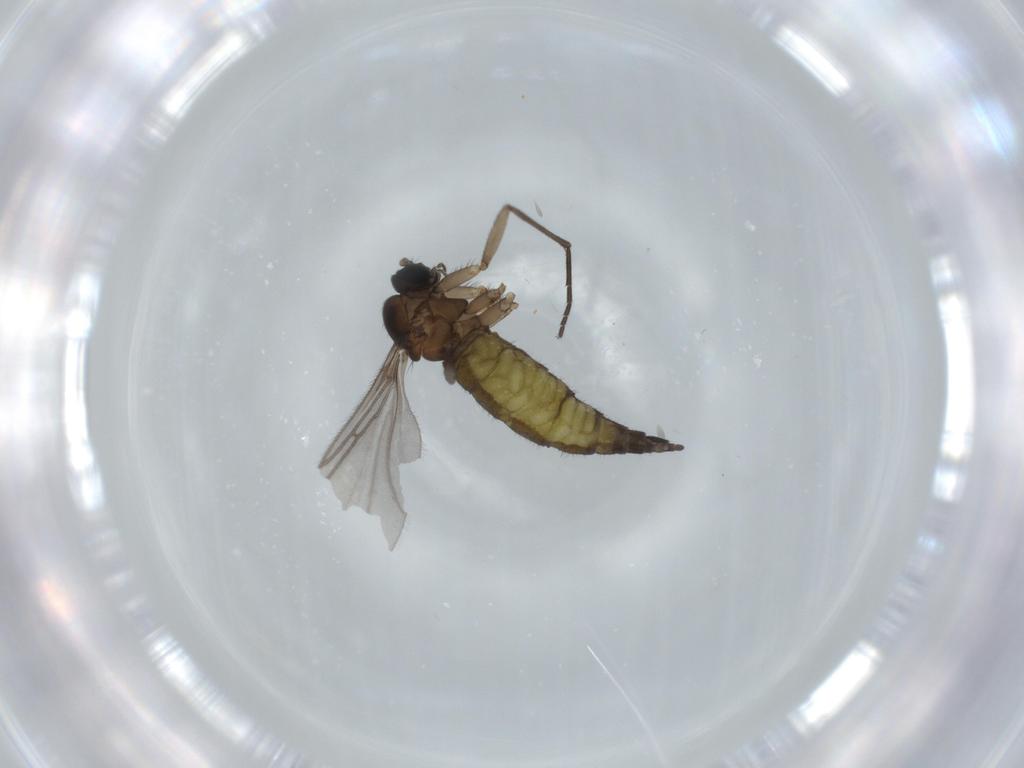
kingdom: Animalia
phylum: Arthropoda
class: Insecta
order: Diptera
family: Sciaridae
